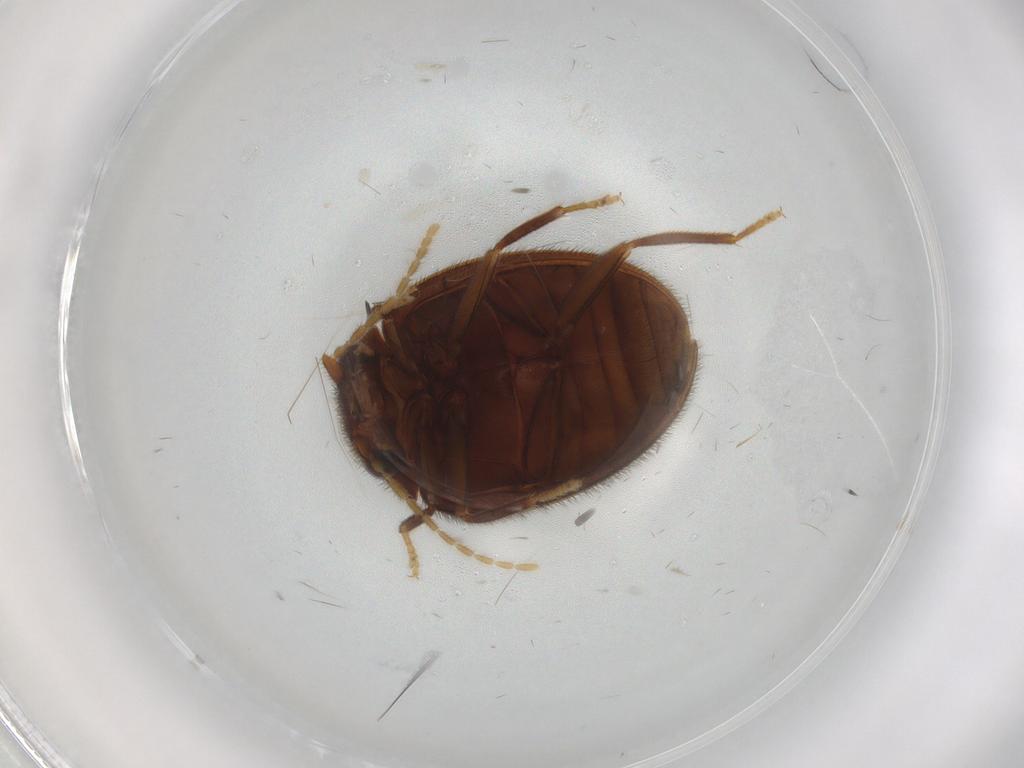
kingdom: Animalia
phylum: Arthropoda
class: Insecta
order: Coleoptera
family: Scirtidae
